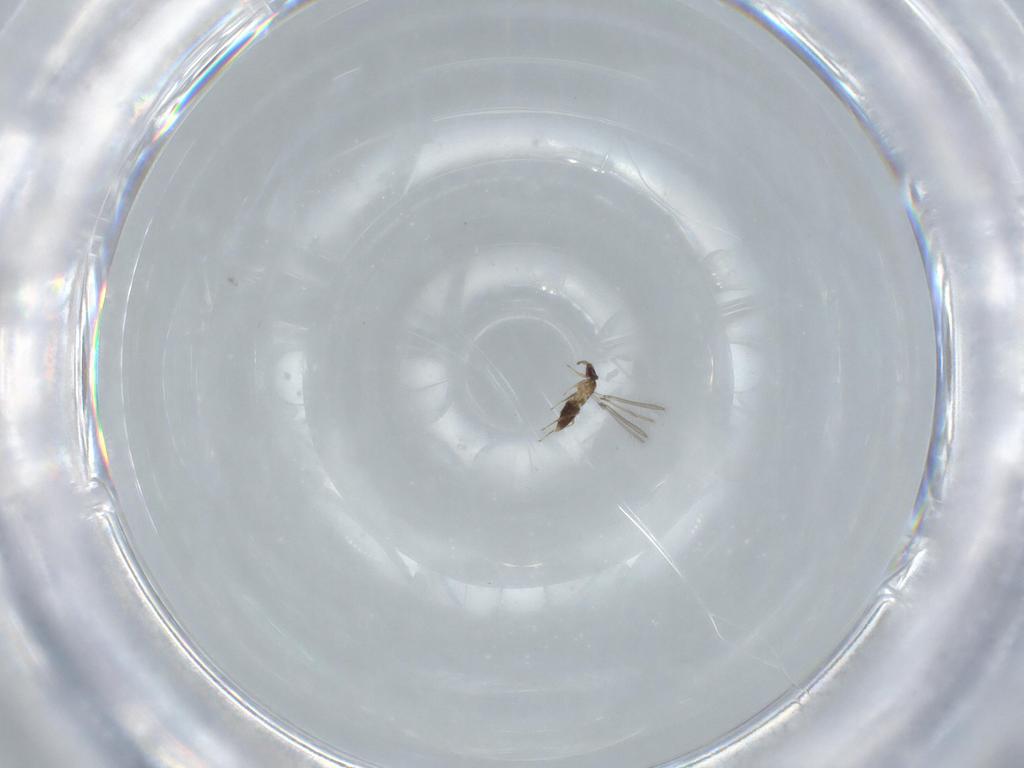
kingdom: Animalia
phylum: Arthropoda
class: Insecta
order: Hymenoptera
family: Mymaridae
